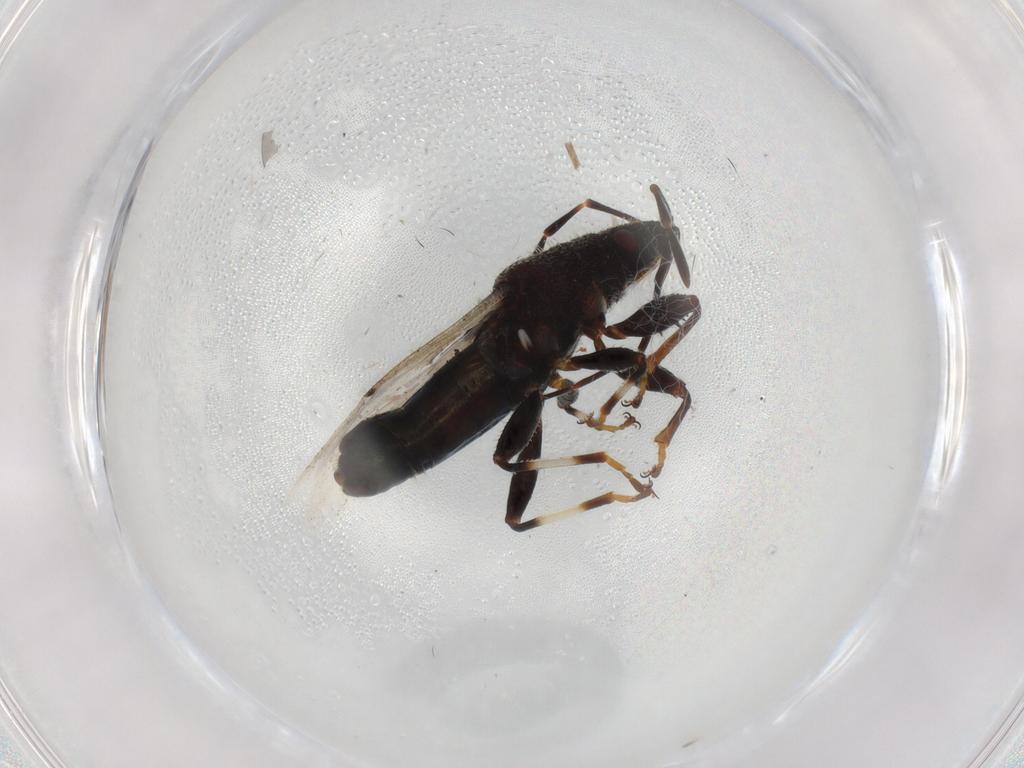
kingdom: Animalia
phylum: Arthropoda
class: Insecta
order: Hemiptera
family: Oxycarenidae
